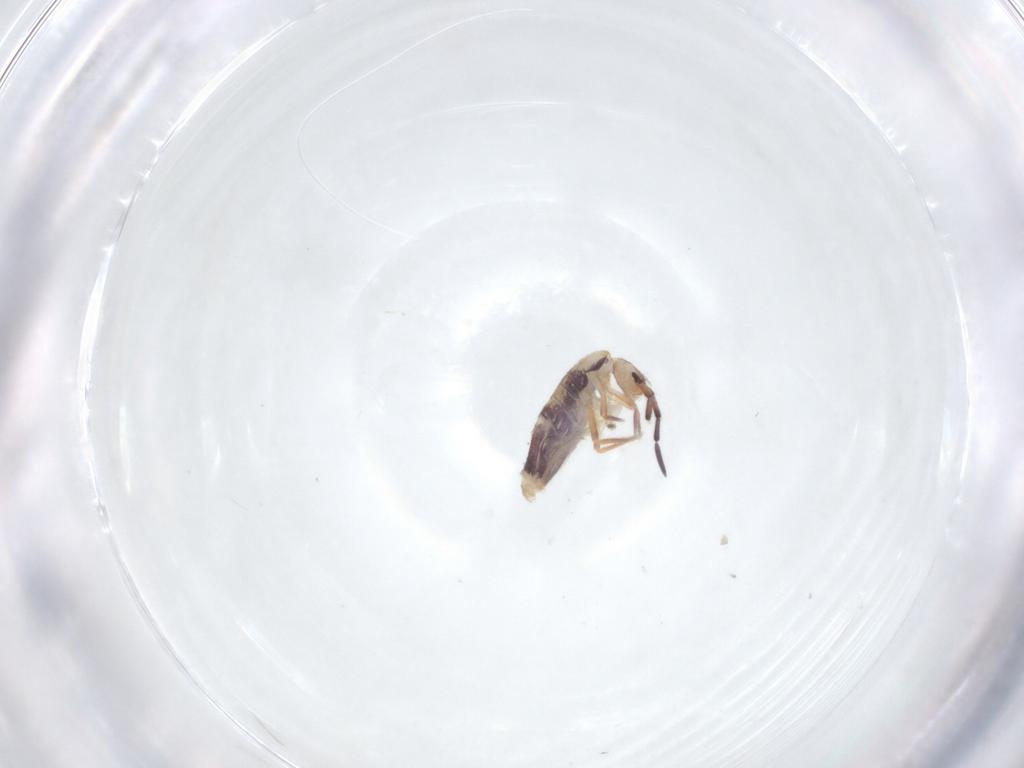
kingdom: Animalia
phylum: Arthropoda
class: Collembola
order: Entomobryomorpha
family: Entomobryidae
